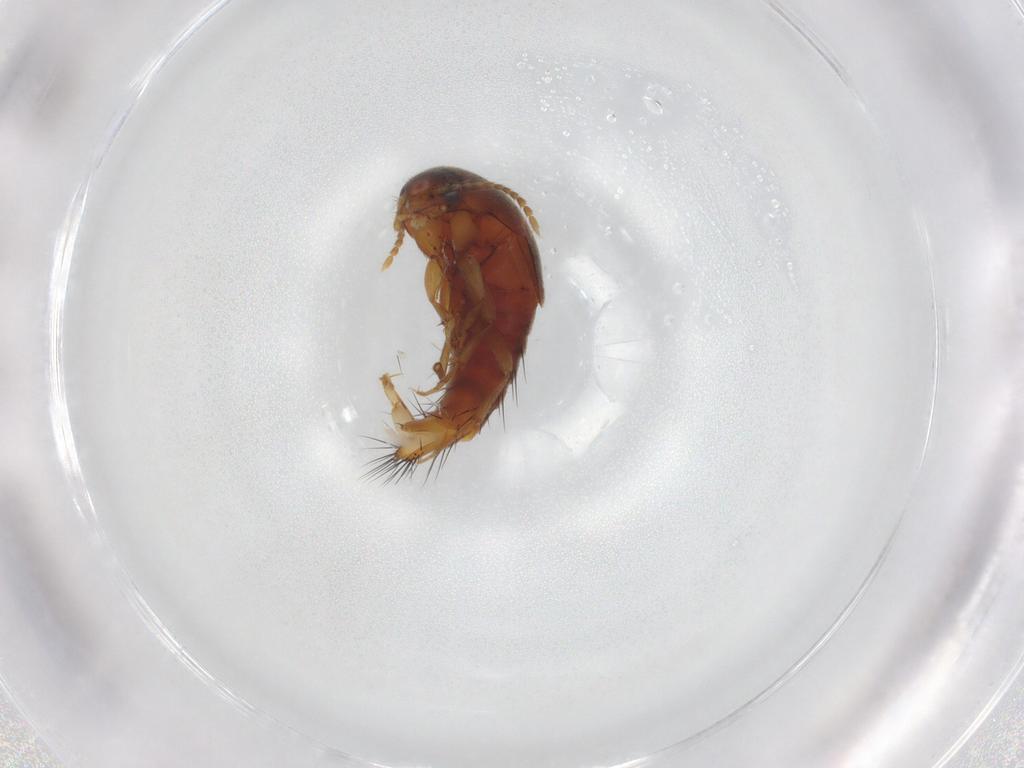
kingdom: Animalia
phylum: Arthropoda
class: Insecta
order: Coleoptera
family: Staphylinidae
